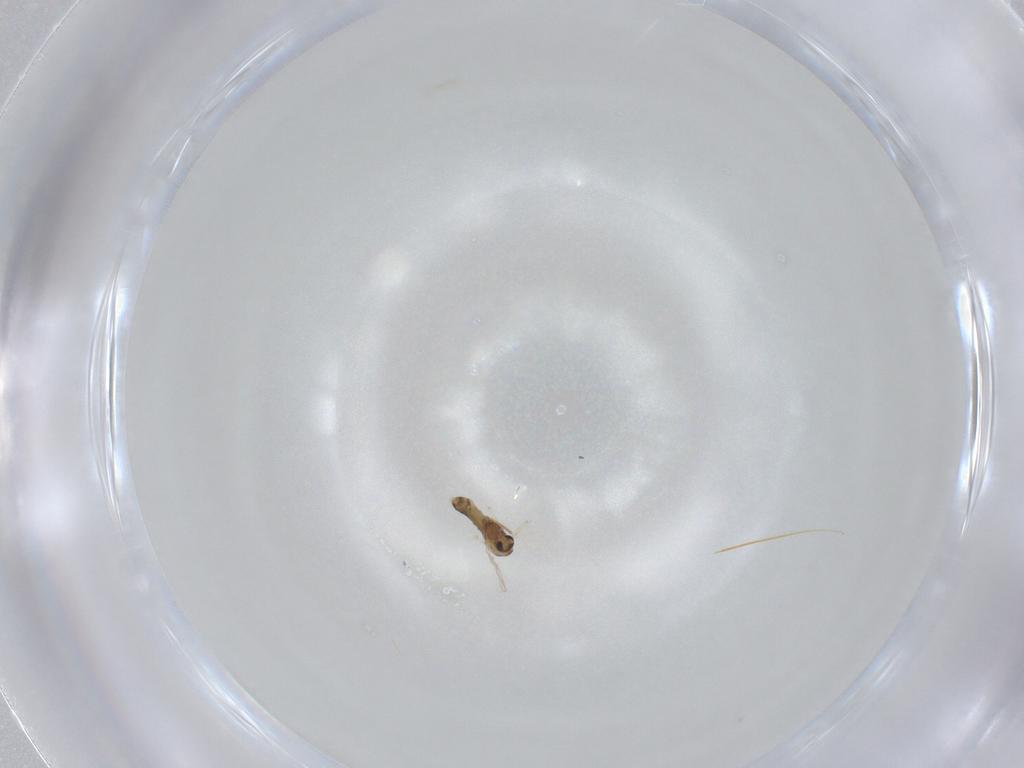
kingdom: Animalia
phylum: Arthropoda
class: Insecta
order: Diptera
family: Chironomidae
